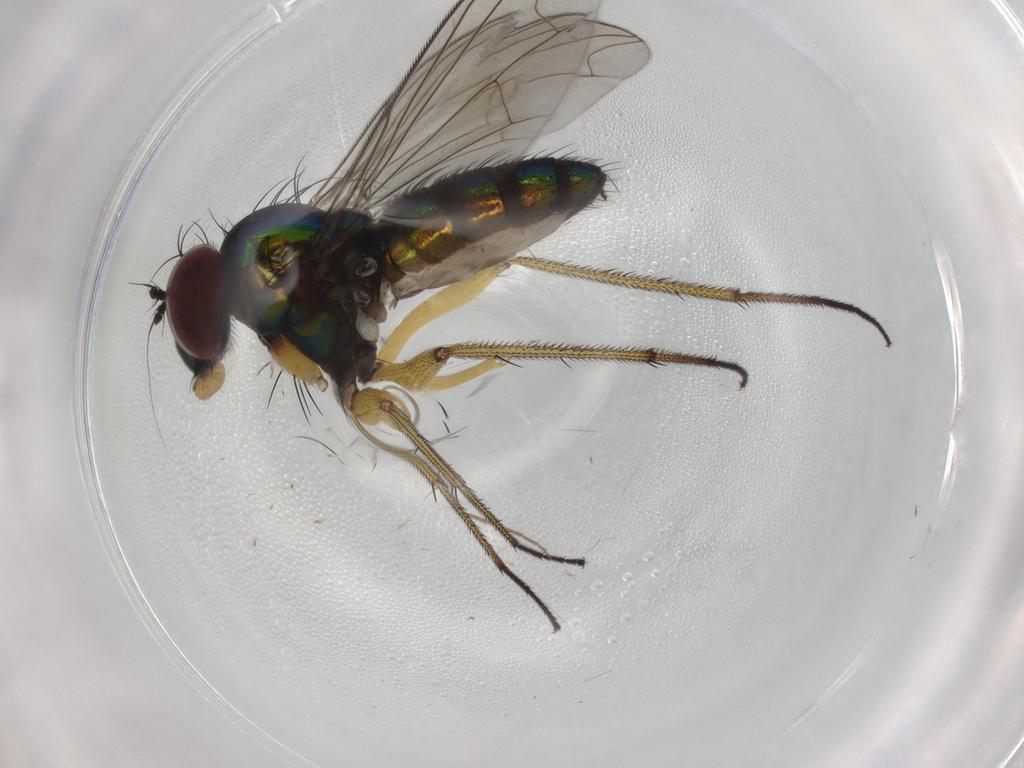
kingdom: Animalia
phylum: Arthropoda
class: Insecta
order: Diptera
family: Dolichopodidae
